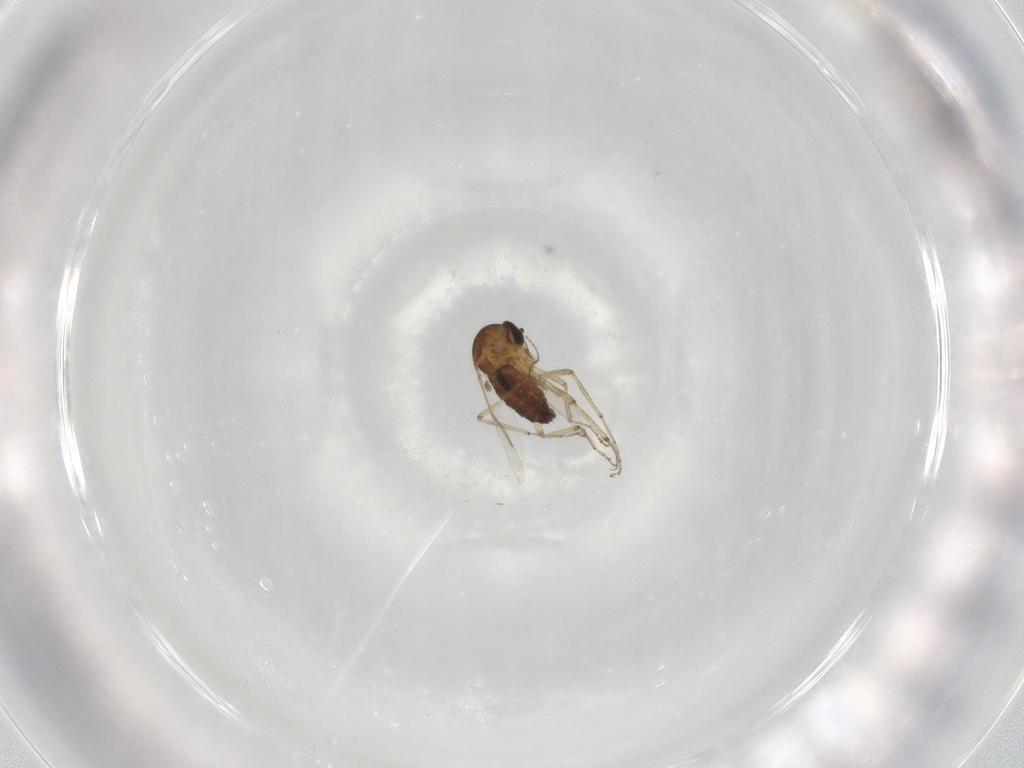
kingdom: Animalia
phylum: Arthropoda
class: Insecta
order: Diptera
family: Ceratopogonidae
